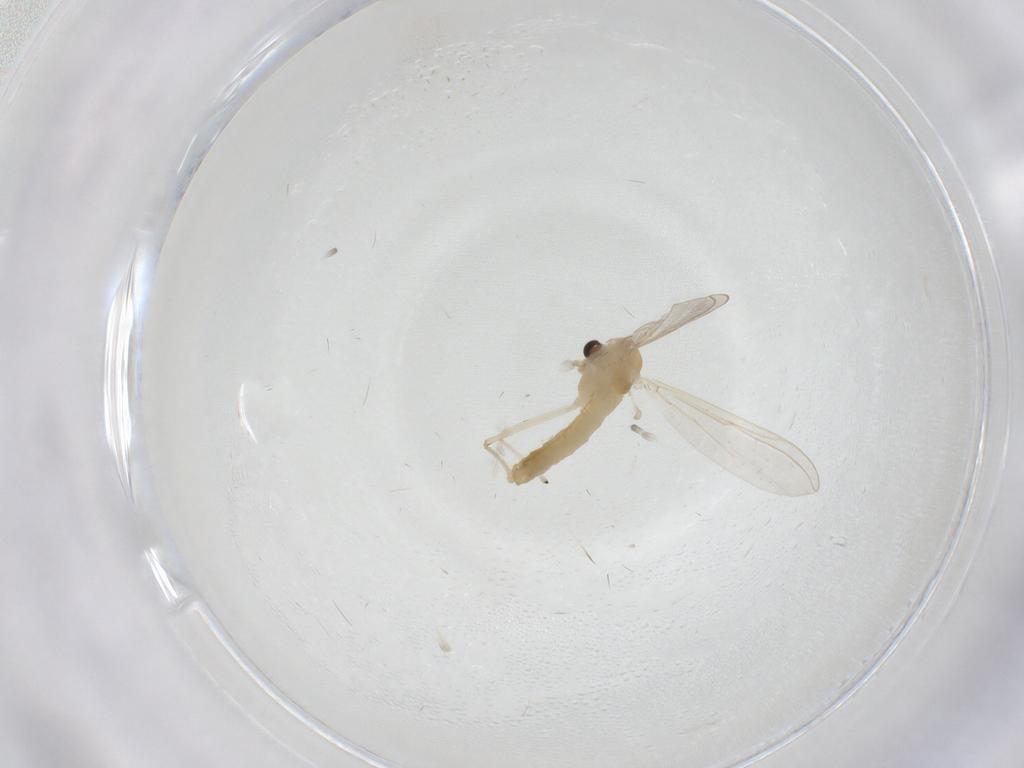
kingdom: Animalia
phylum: Arthropoda
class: Insecta
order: Diptera
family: Chironomidae
